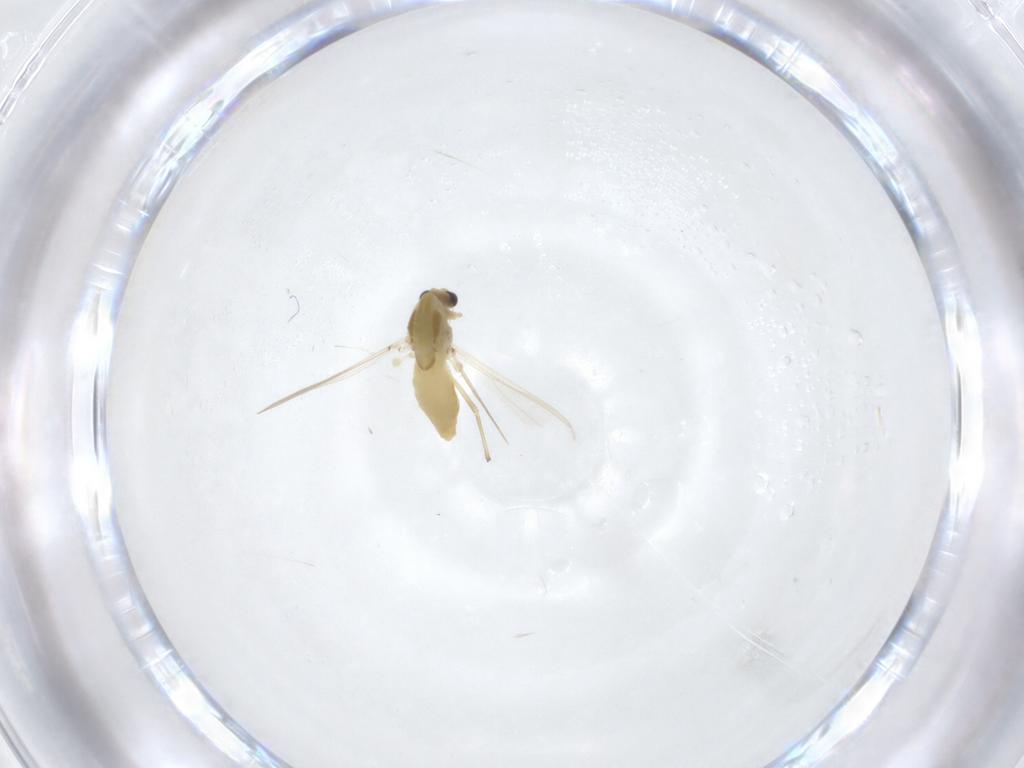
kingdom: Animalia
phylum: Arthropoda
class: Insecta
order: Diptera
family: Chironomidae
